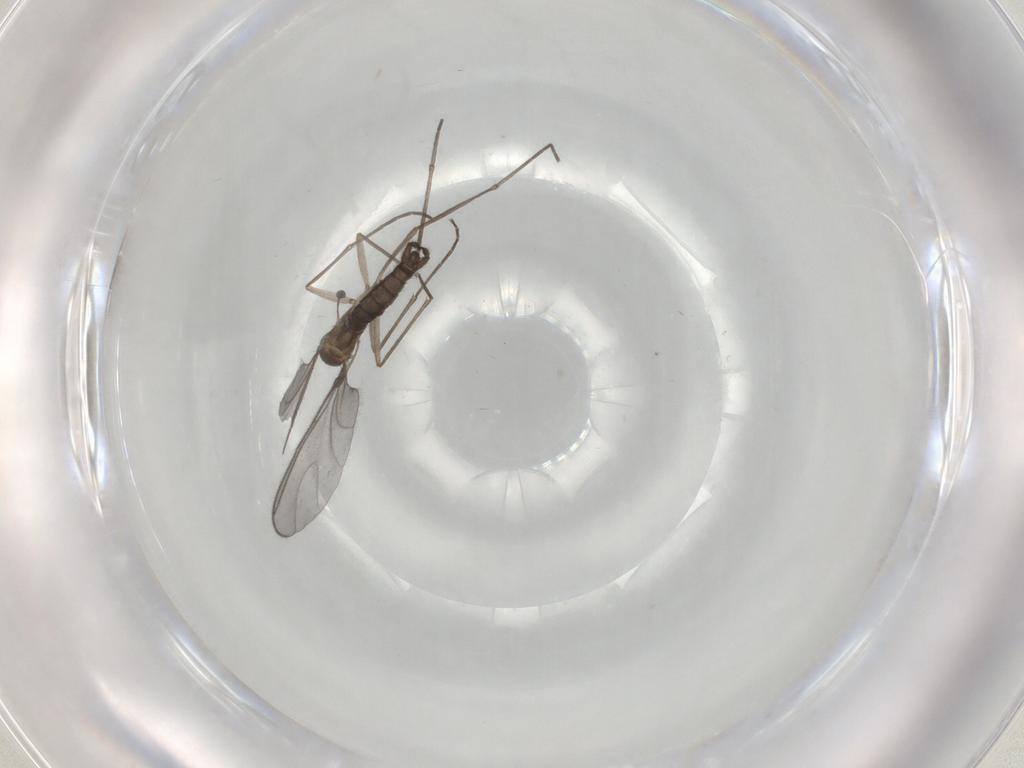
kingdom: Animalia
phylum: Arthropoda
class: Insecta
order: Diptera
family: Sciaridae
